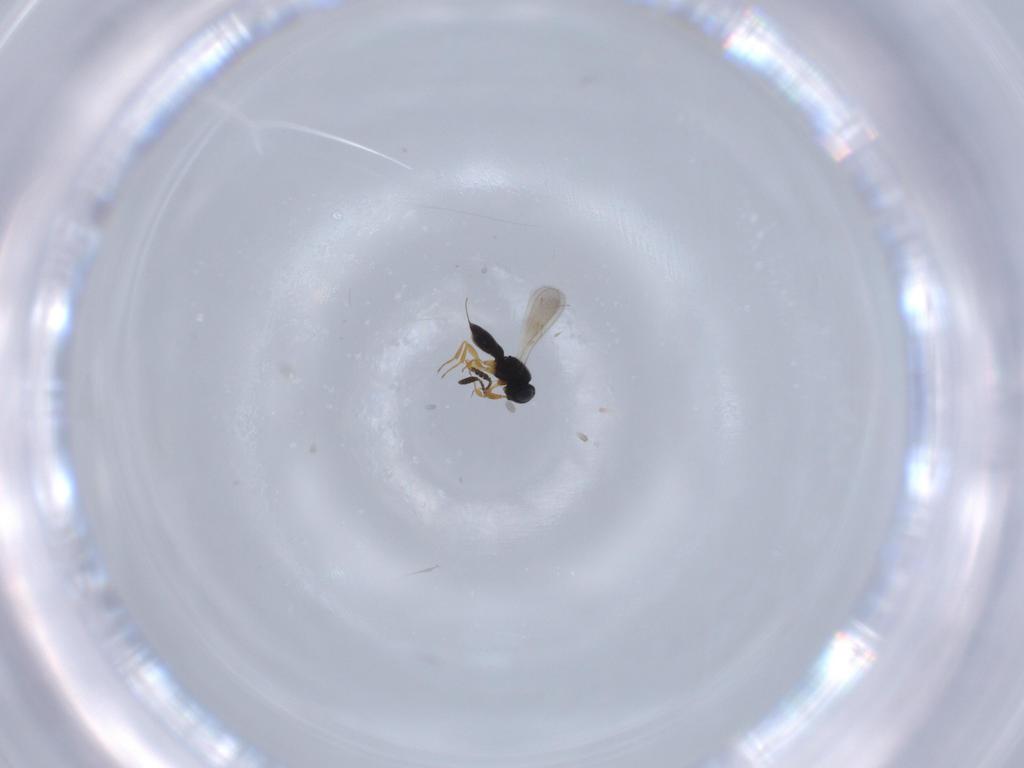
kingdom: Animalia
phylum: Arthropoda
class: Insecta
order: Hymenoptera
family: Scelionidae
